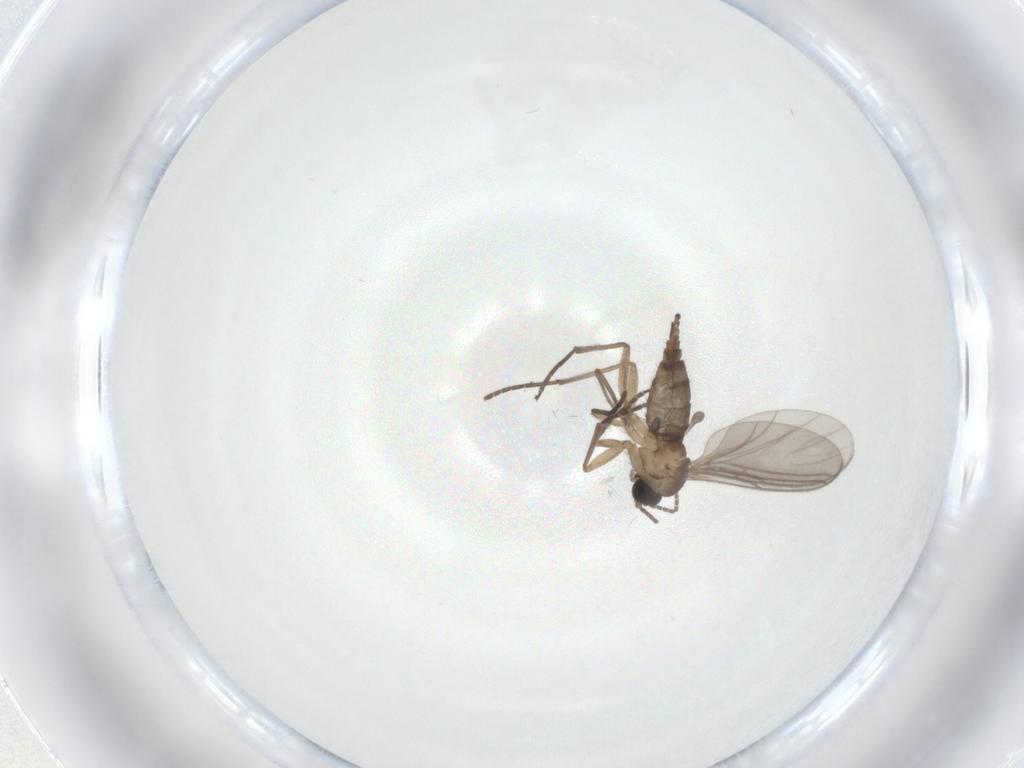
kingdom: Animalia
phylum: Arthropoda
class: Insecta
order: Diptera
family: Sciaridae
